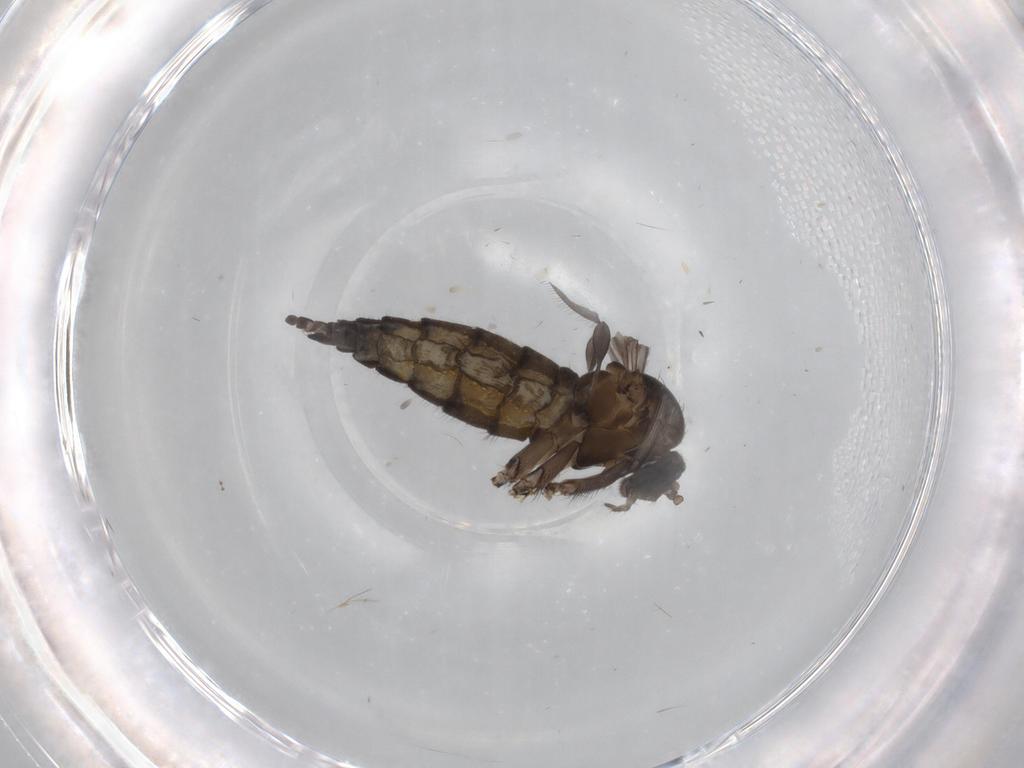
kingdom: Animalia
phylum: Arthropoda
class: Insecta
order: Diptera
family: Sciaridae
